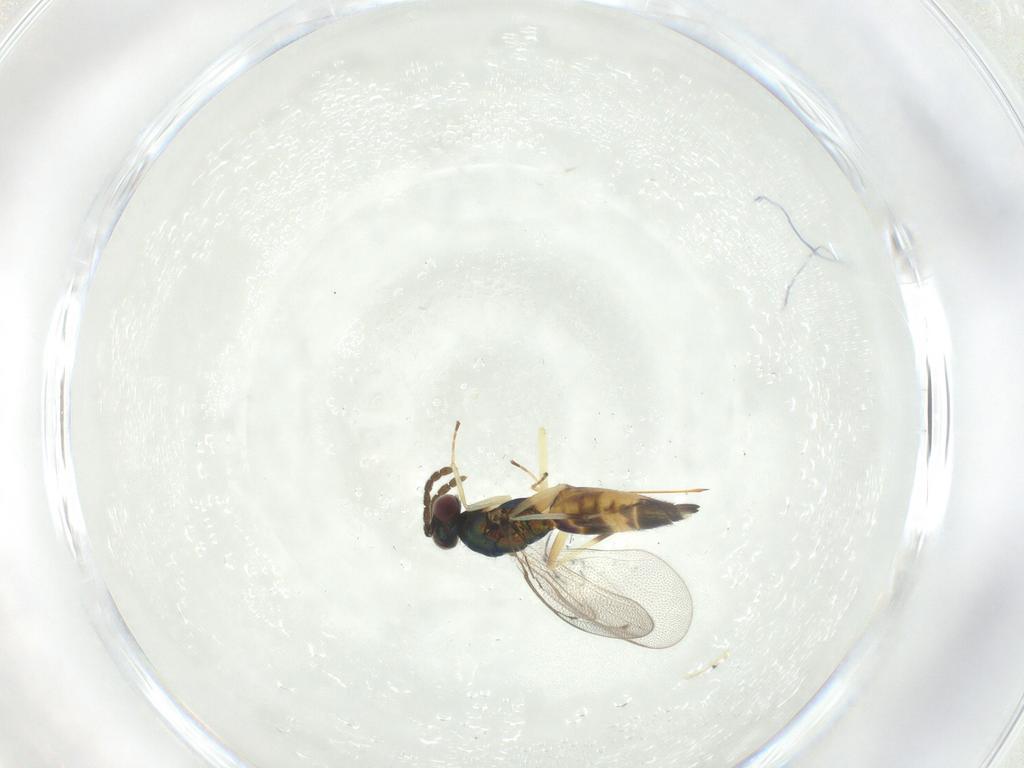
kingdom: Animalia
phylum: Arthropoda
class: Insecta
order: Hymenoptera
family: Eulophidae
